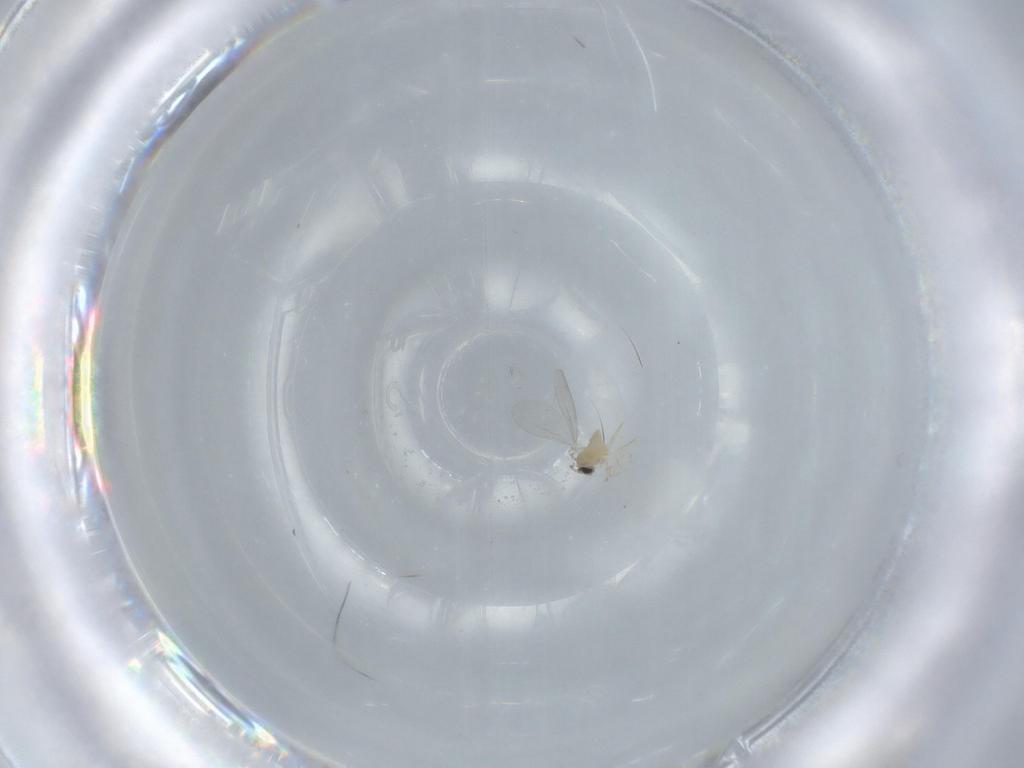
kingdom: Animalia
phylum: Arthropoda
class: Insecta
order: Diptera
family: Cecidomyiidae
